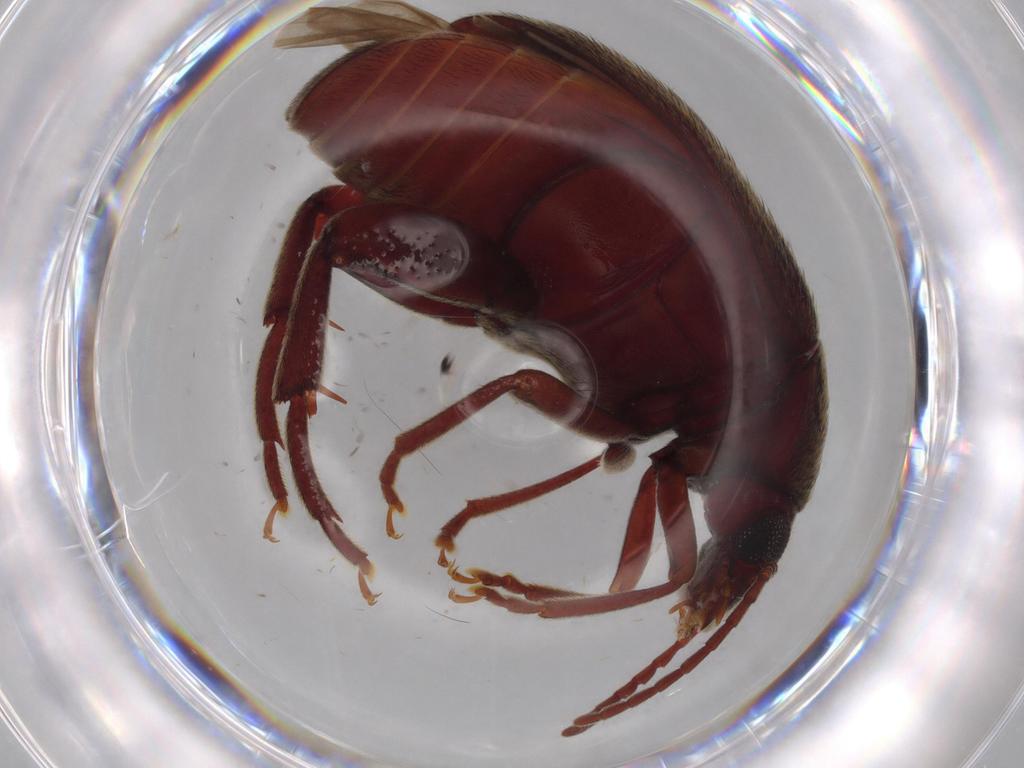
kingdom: Animalia
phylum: Arthropoda
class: Insecta
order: Coleoptera
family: Chrysomelidae
